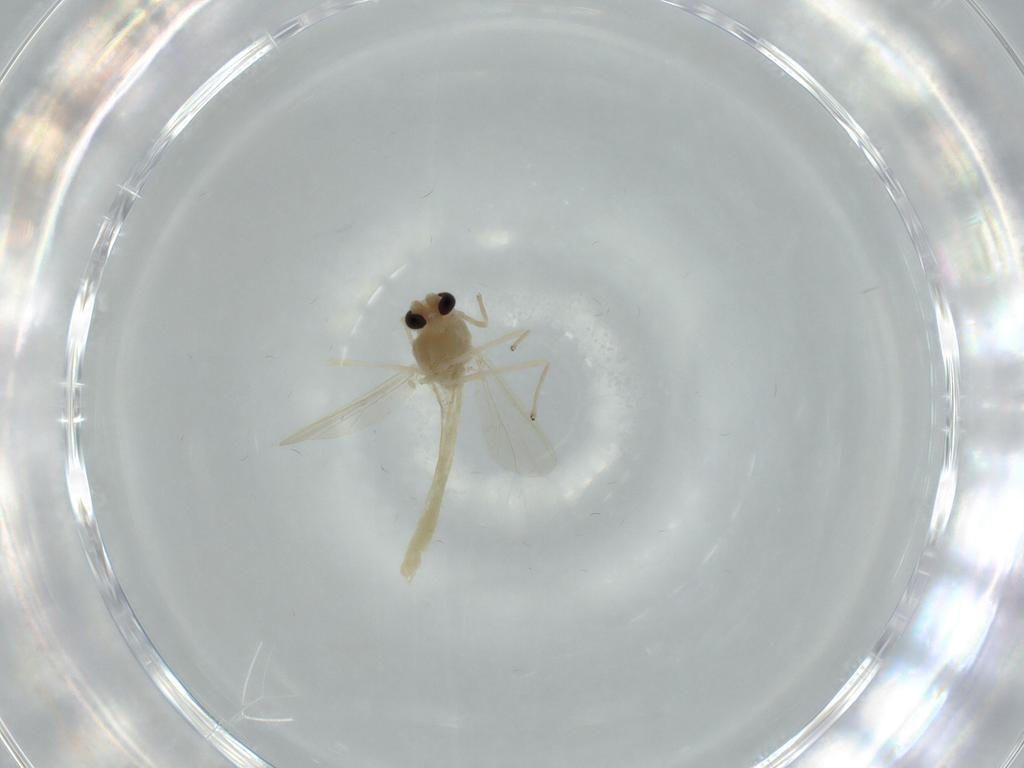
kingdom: Animalia
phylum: Arthropoda
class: Insecta
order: Diptera
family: Chironomidae
